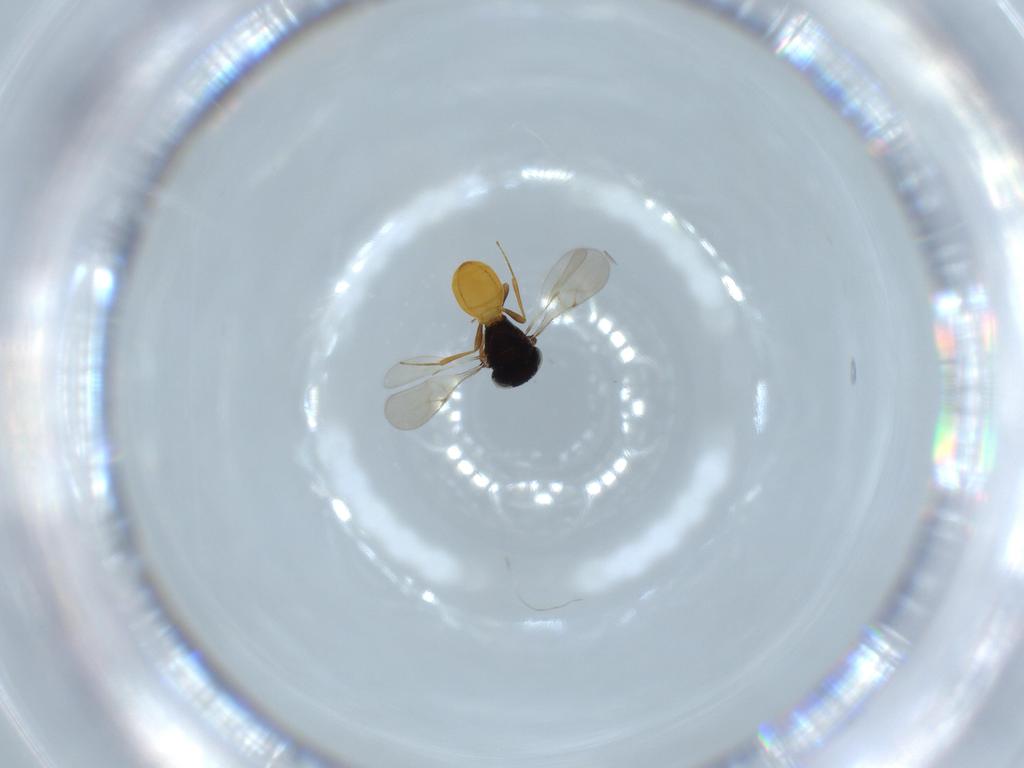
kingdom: Animalia
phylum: Arthropoda
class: Insecta
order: Hymenoptera
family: Scelionidae
